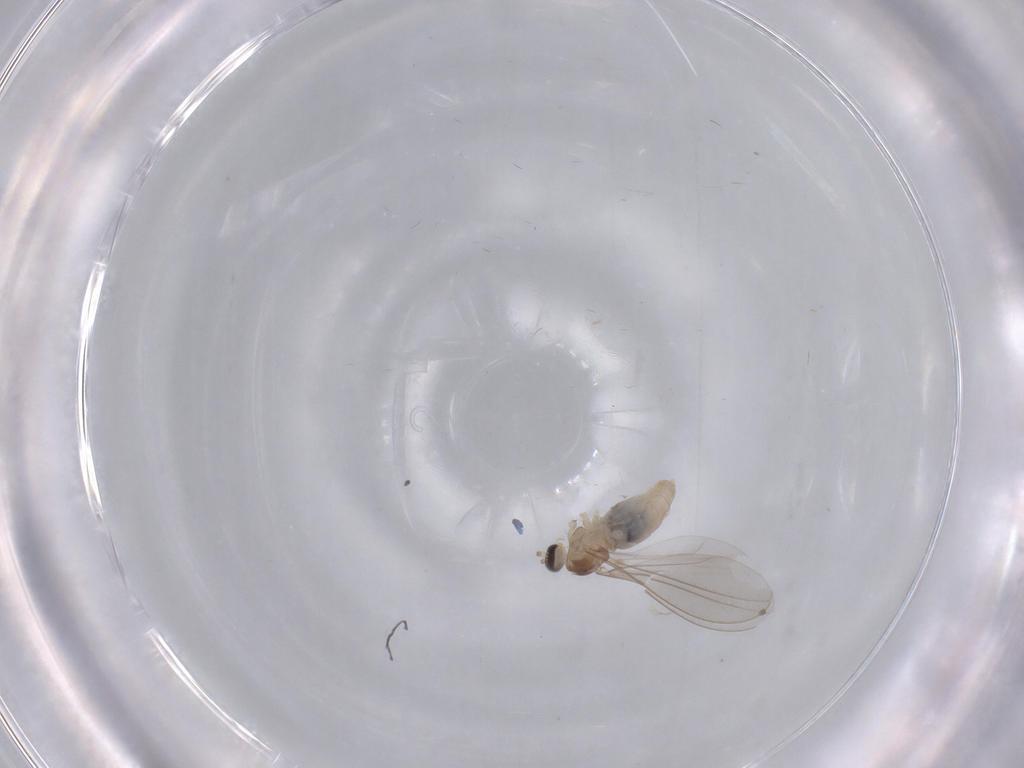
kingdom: Animalia
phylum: Arthropoda
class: Insecta
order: Diptera
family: Cecidomyiidae
